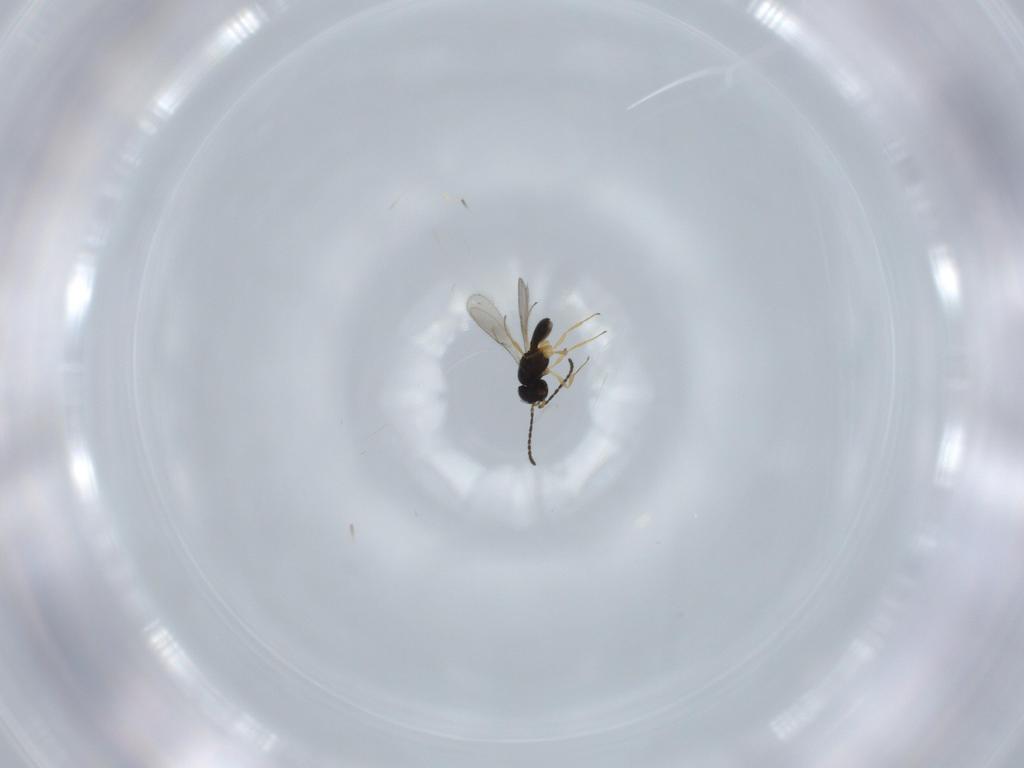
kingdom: Animalia
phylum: Arthropoda
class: Insecta
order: Hymenoptera
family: Scelionidae
